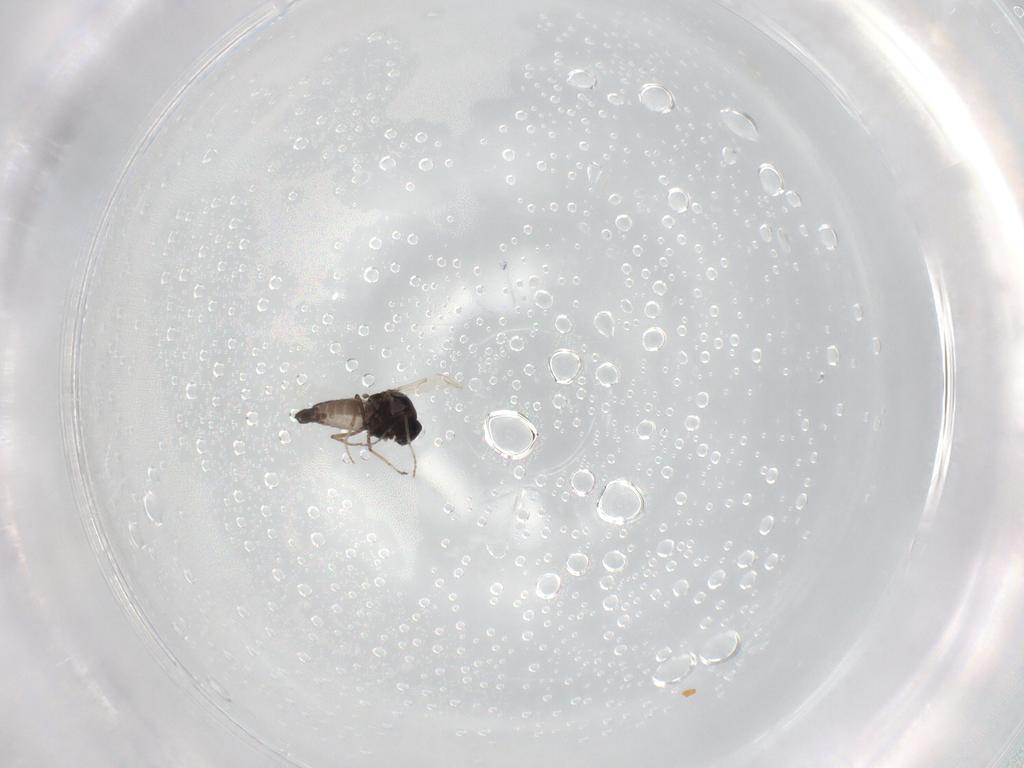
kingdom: Animalia
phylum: Arthropoda
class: Insecta
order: Diptera
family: Ceratopogonidae
